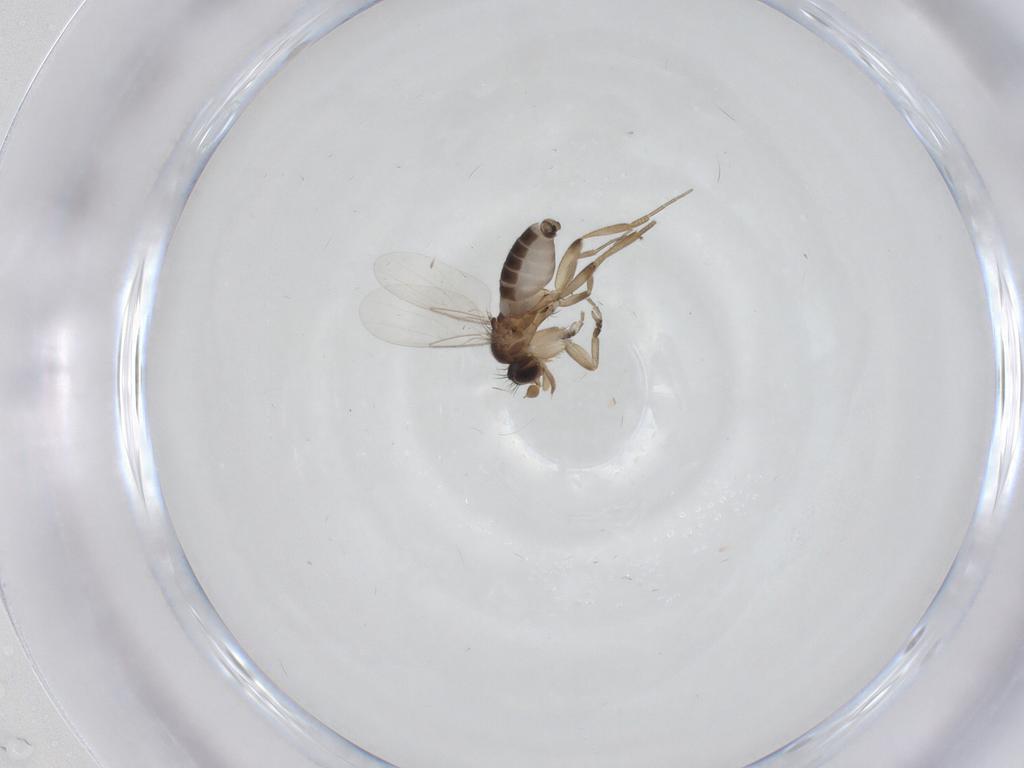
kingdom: Animalia
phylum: Arthropoda
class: Insecta
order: Diptera
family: Phoridae
